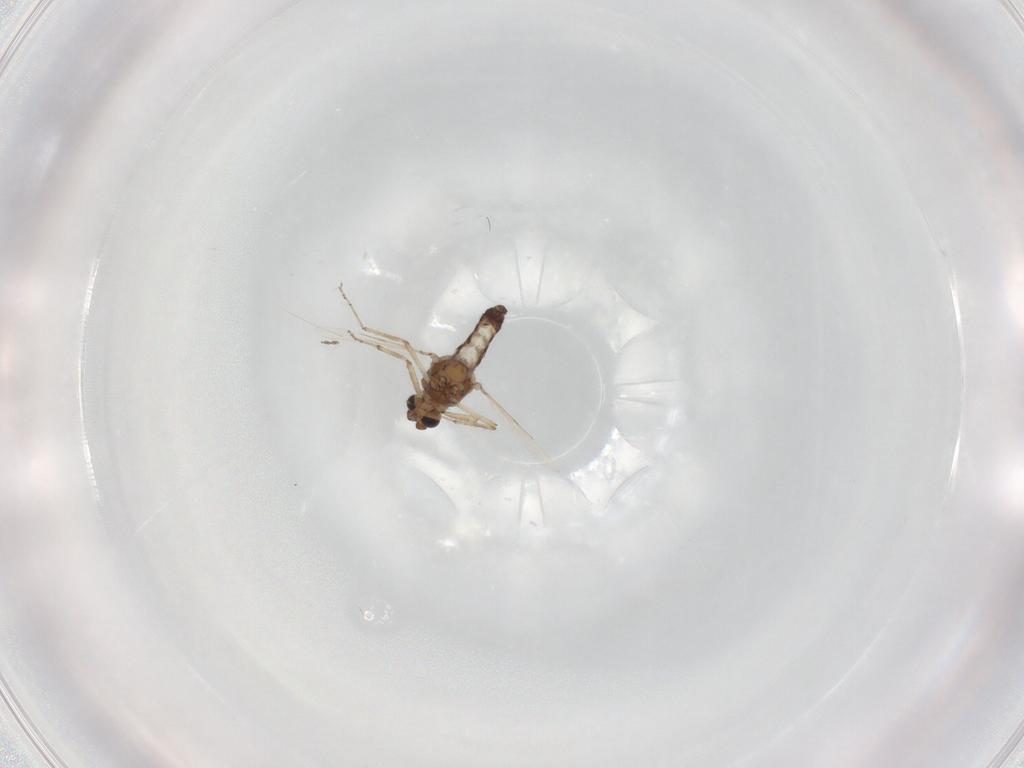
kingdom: Animalia
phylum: Arthropoda
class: Insecta
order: Diptera
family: Ceratopogonidae
